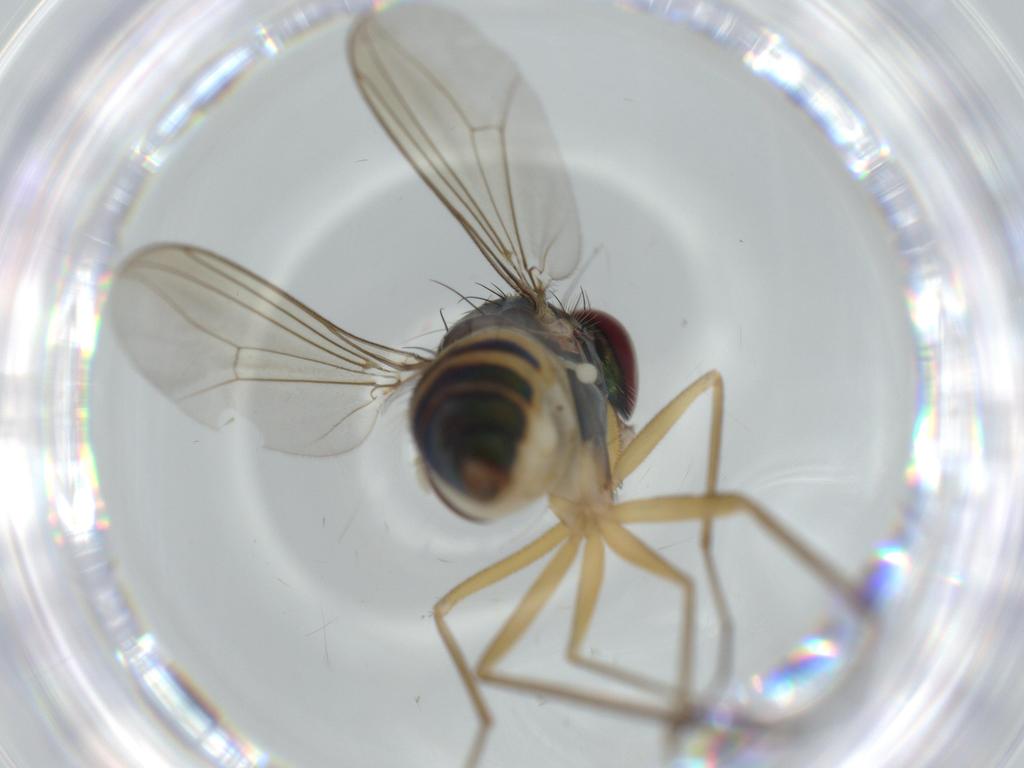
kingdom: Animalia
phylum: Arthropoda
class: Insecta
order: Diptera
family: Dolichopodidae
